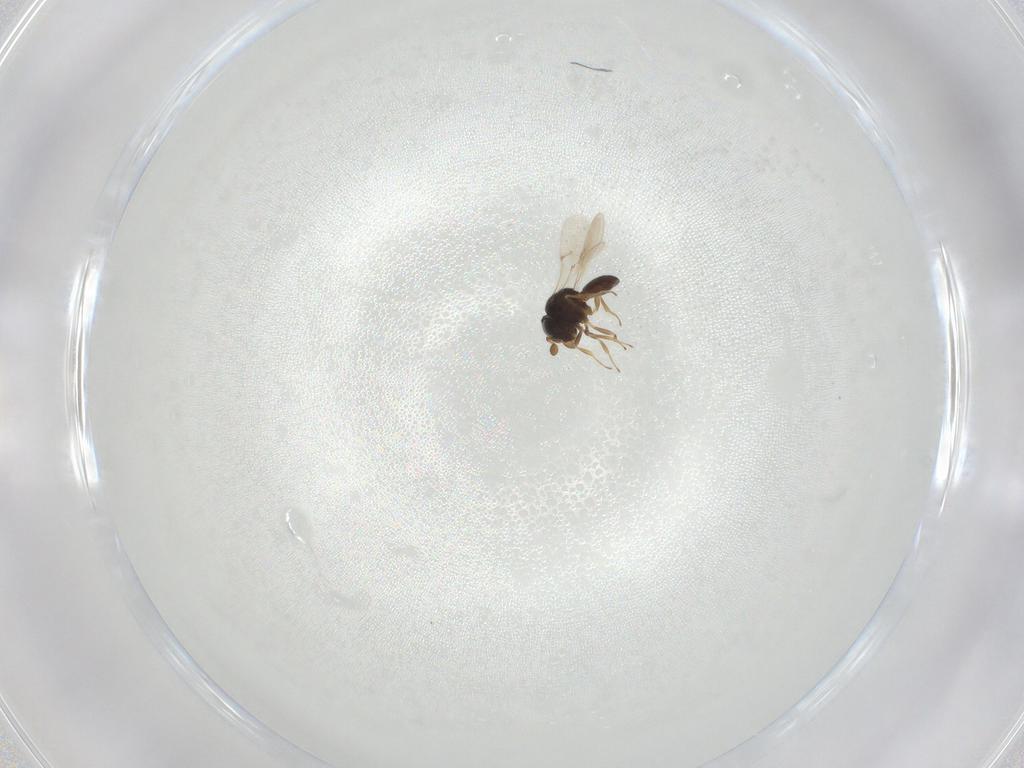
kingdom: Animalia
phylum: Arthropoda
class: Insecta
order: Hymenoptera
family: Scelionidae
